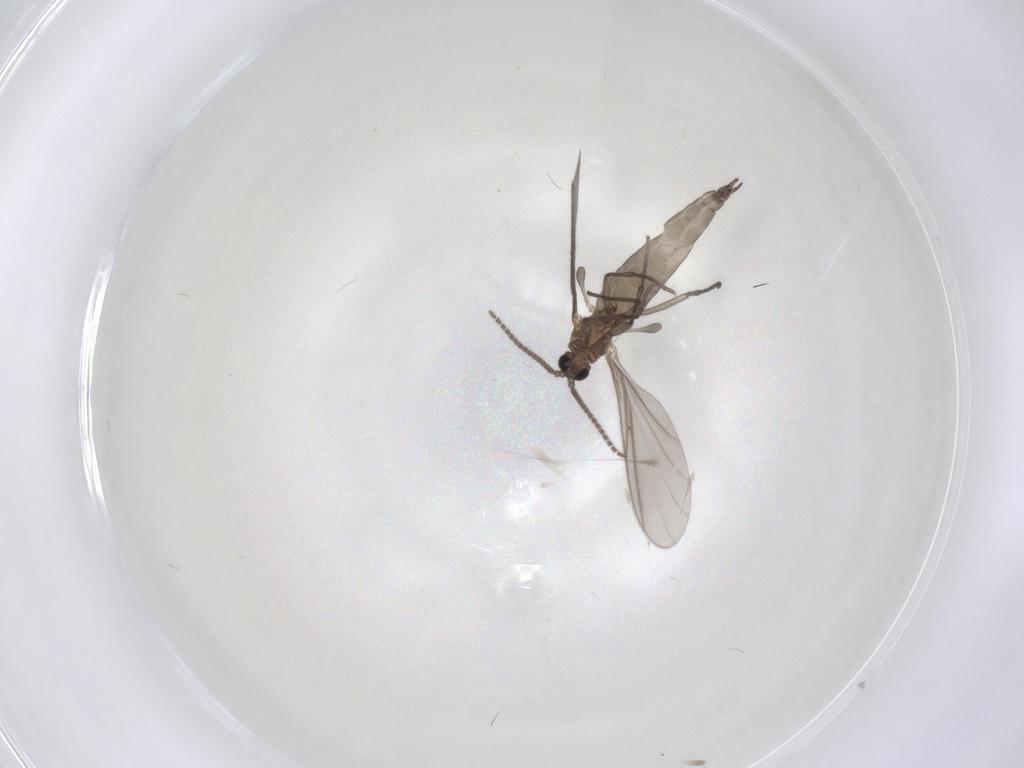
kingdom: Animalia
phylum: Arthropoda
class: Insecta
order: Diptera
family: Sciaridae
